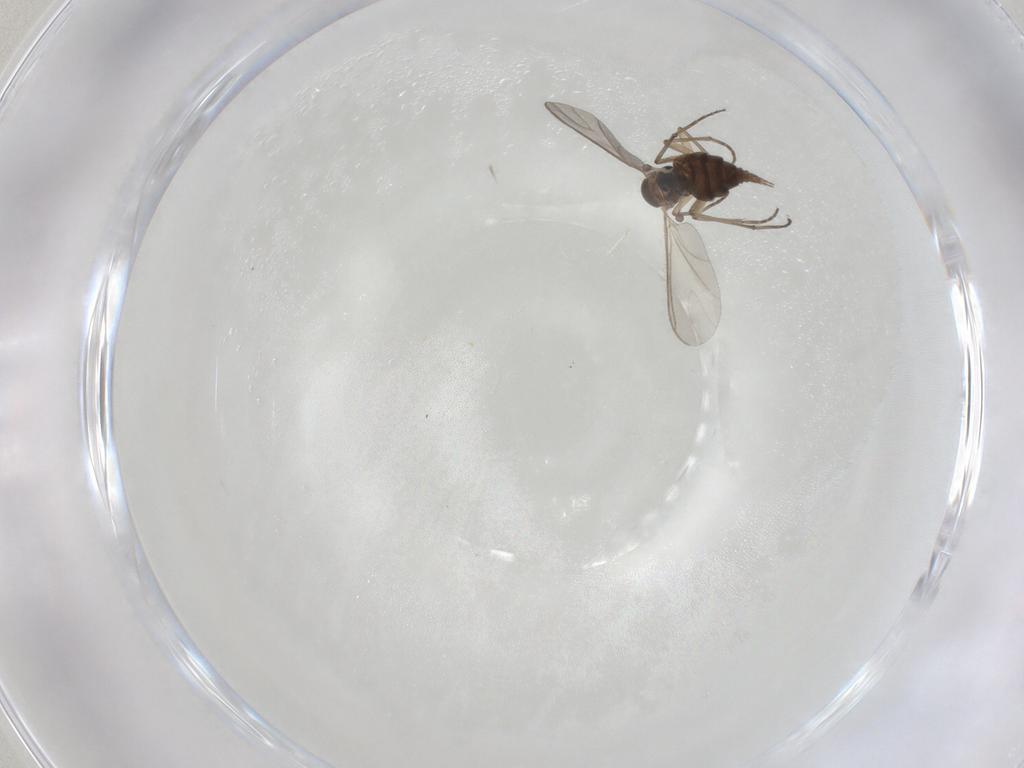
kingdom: Animalia
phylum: Arthropoda
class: Insecta
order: Diptera
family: Sciaridae
